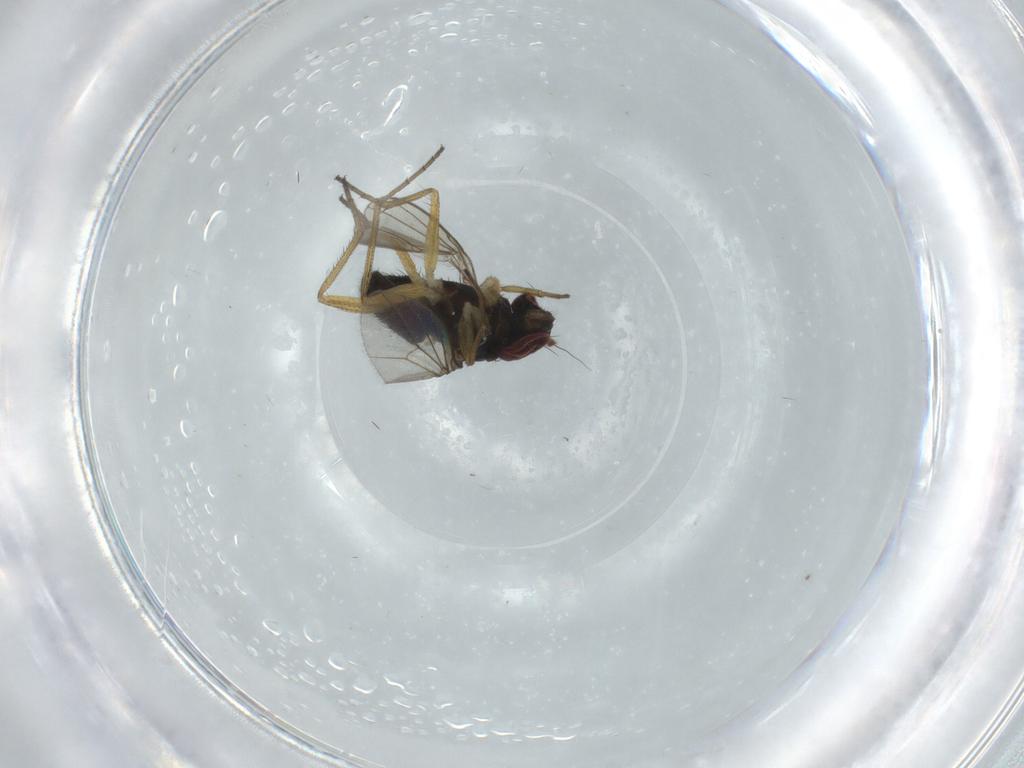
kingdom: Animalia
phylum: Arthropoda
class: Insecta
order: Diptera
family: Dolichopodidae
